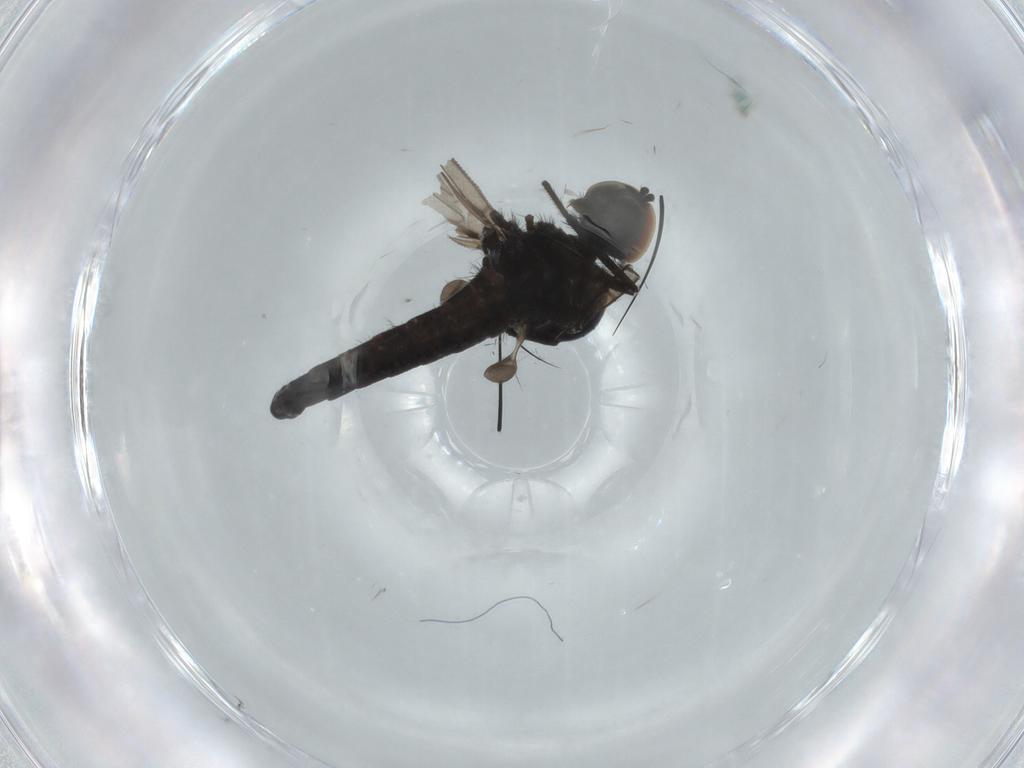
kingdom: Animalia
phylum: Arthropoda
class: Insecta
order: Diptera
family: Hybotidae
